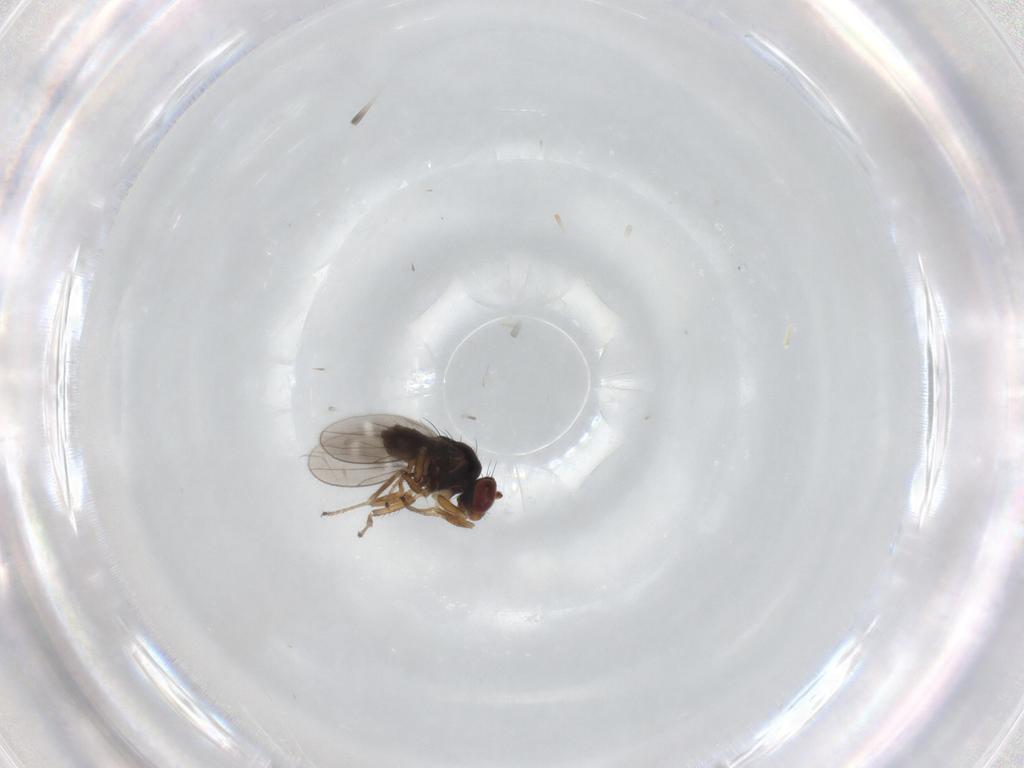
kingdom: Animalia
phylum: Arthropoda
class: Insecta
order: Diptera
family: Ephydridae
